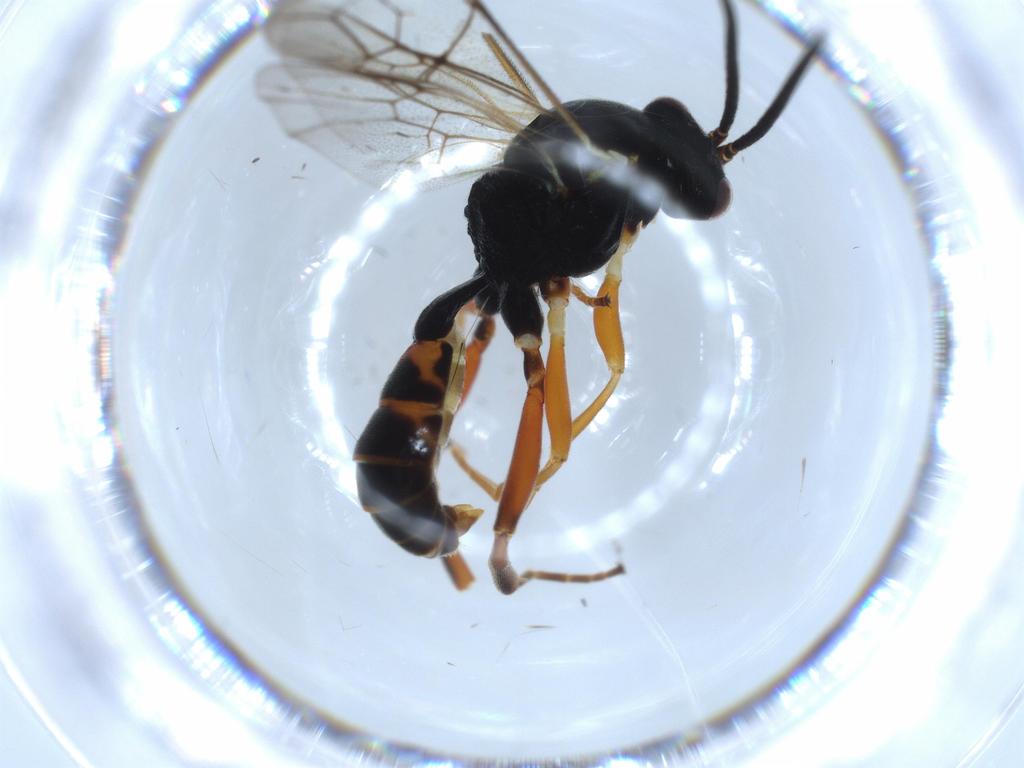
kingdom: Animalia
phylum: Arthropoda
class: Insecta
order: Hymenoptera
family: Ichneumonidae
